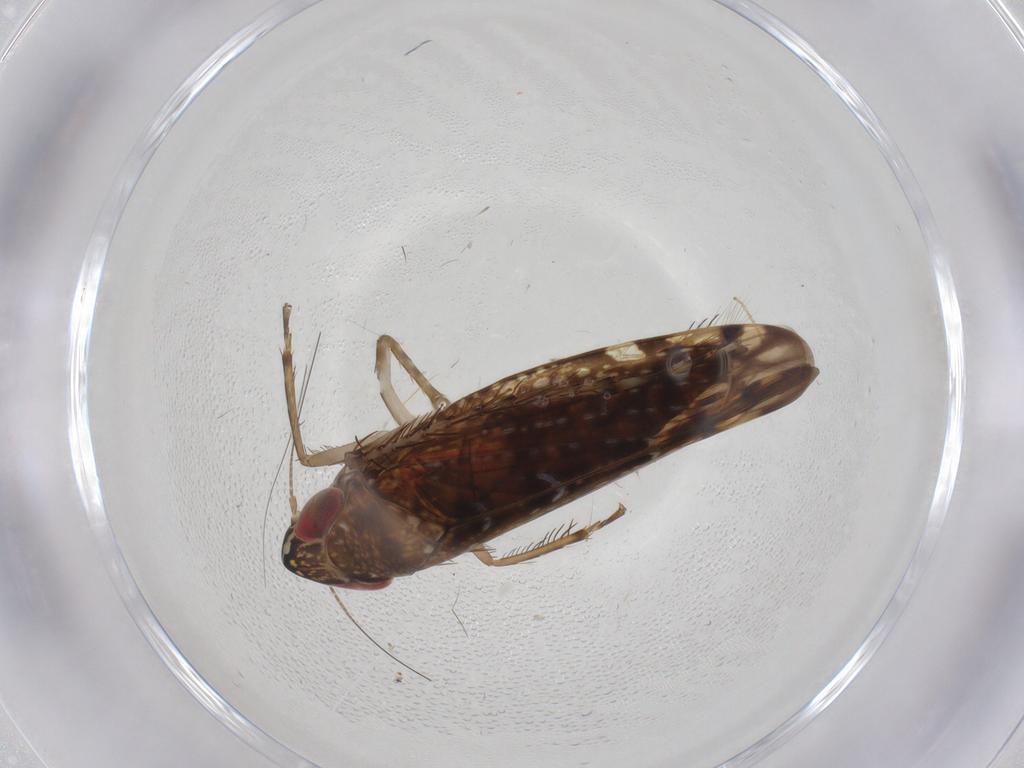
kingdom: Animalia
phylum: Arthropoda
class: Insecta
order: Hemiptera
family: Cicadellidae
